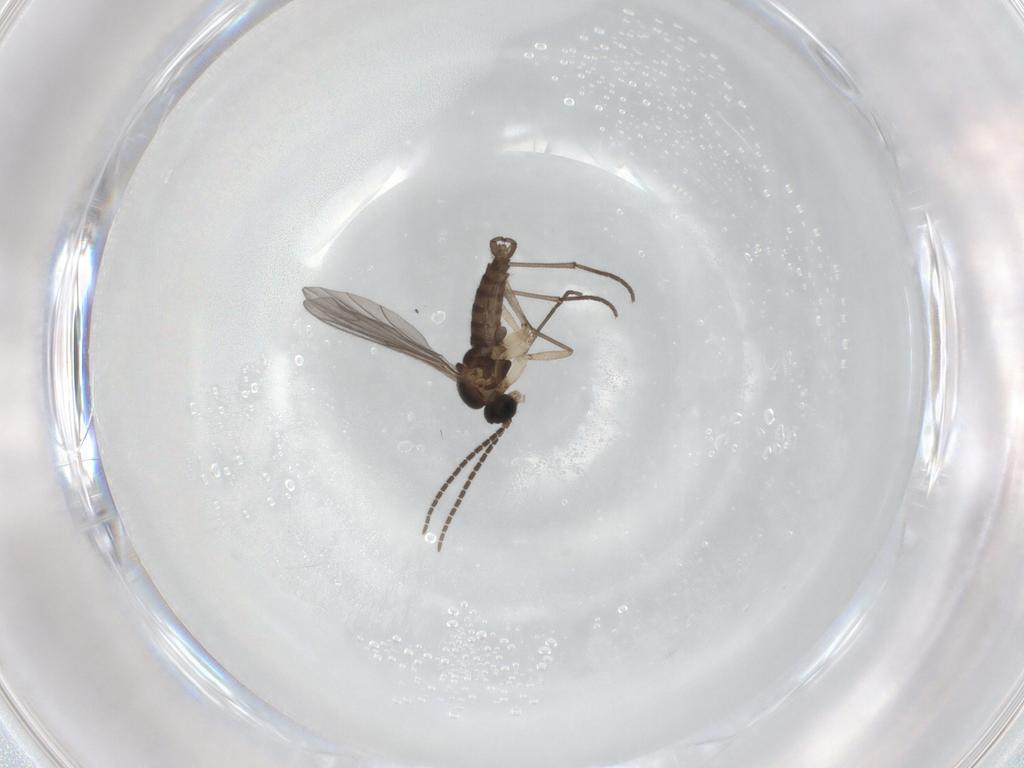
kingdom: Animalia
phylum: Arthropoda
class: Insecta
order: Diptera
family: Sciaridae
